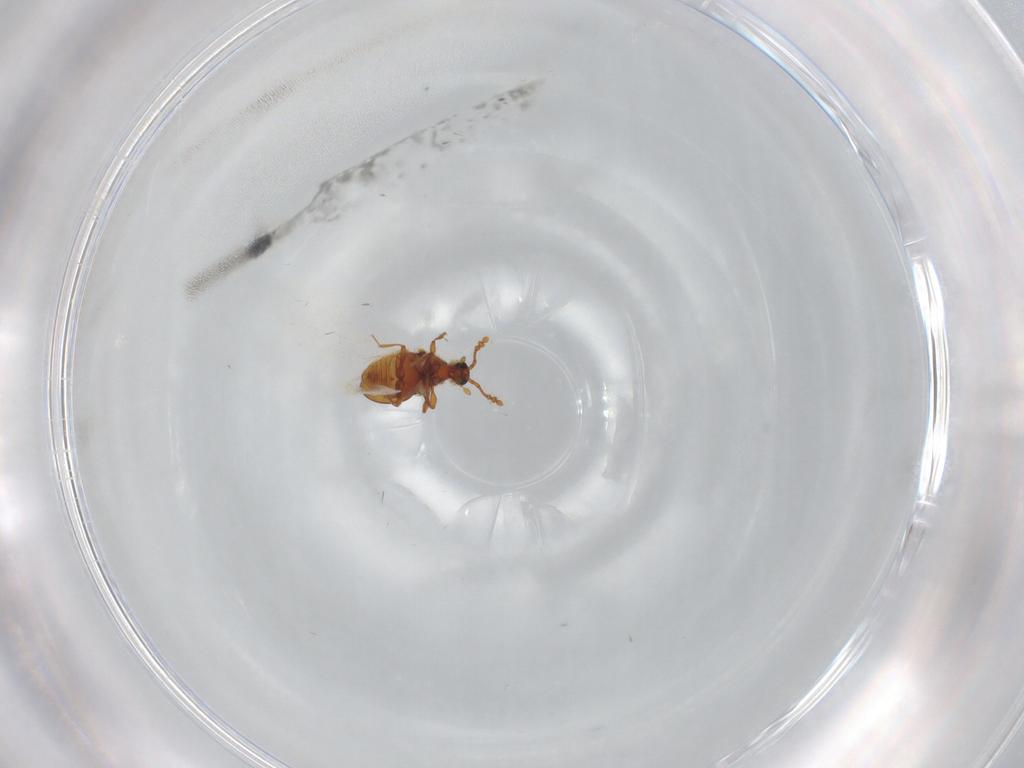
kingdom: Animalia
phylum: Arthropoda
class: Insecta
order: Coleoptera
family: Staphylinidae
